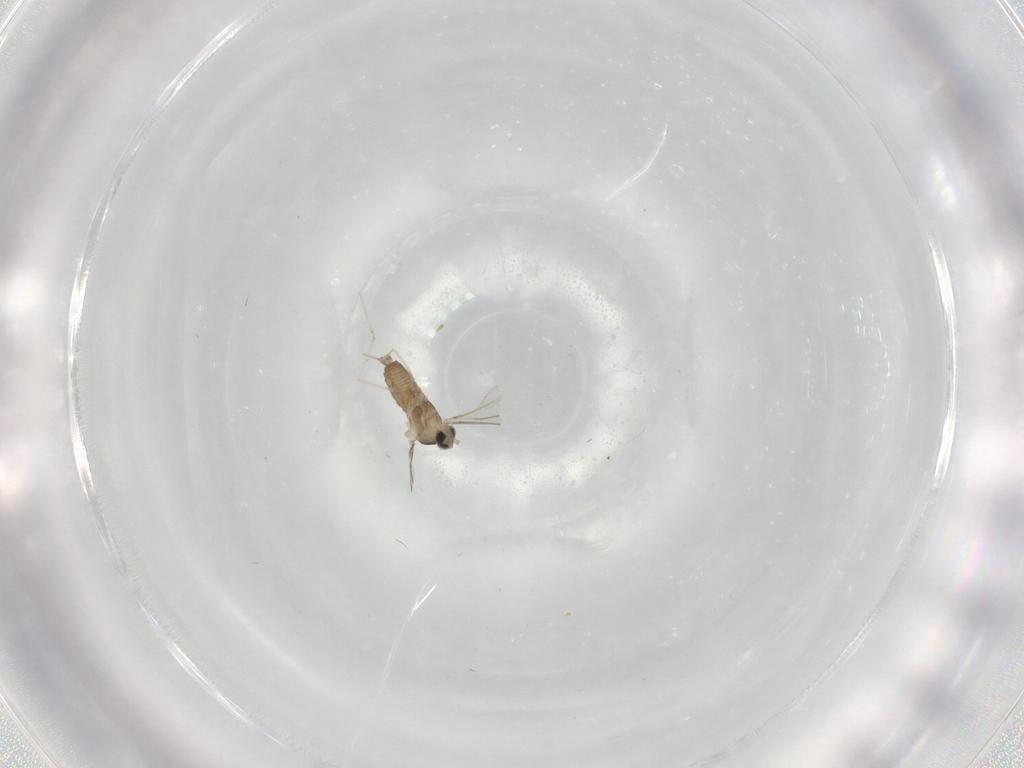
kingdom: Animalia
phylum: Arthropoda
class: Insecta
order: Diptera
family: Cecidomyiidae
